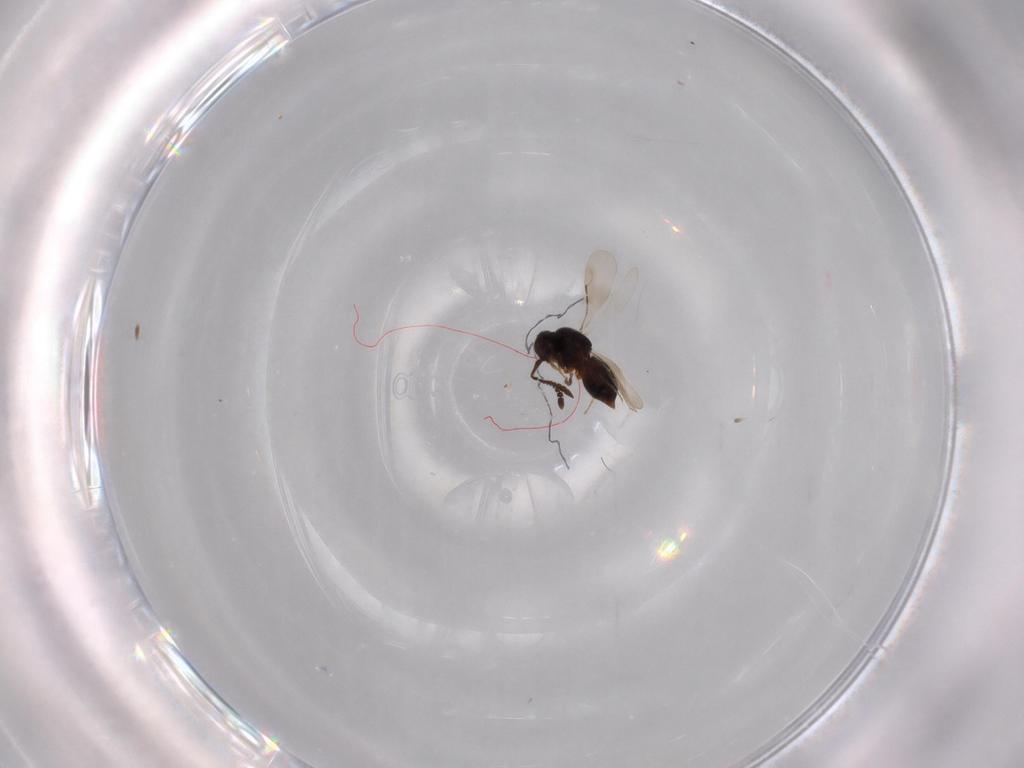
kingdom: Animalia
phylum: Arthropoda
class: Insecta
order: Hymenoptera
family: Ceraphronidae
